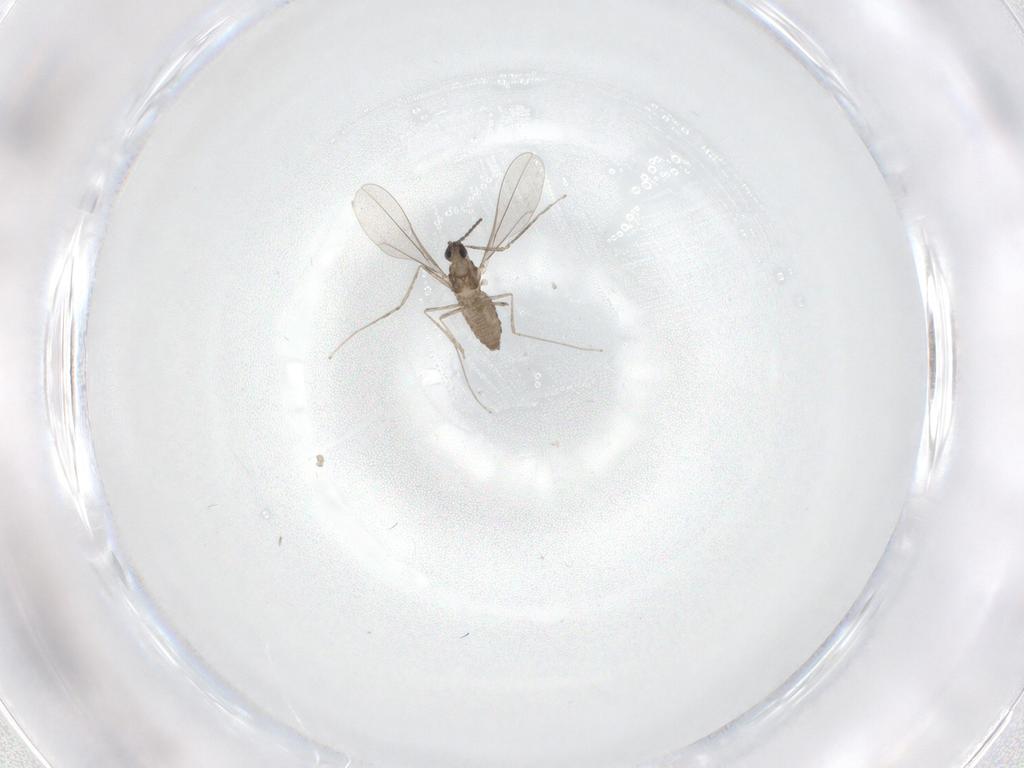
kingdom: Animalia
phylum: Arthropoda
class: Insecta
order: Diptera
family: Cecidomyiidae
